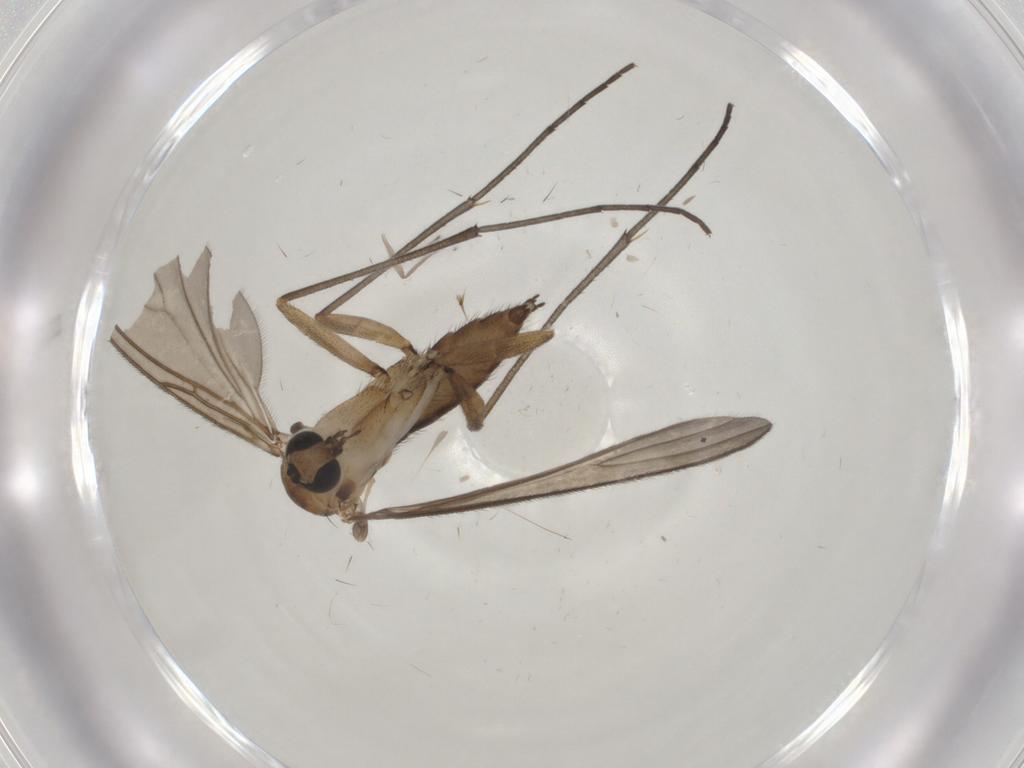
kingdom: Animalia
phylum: Arthropoda
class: Insecta
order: Diptera
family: Sciaridae
